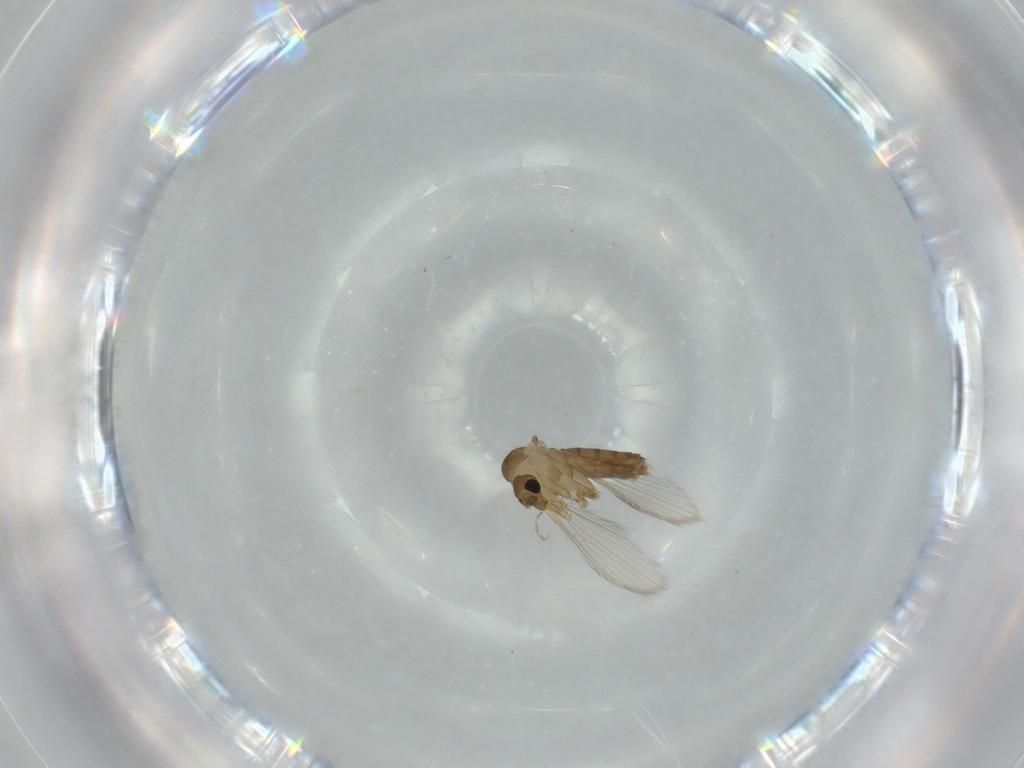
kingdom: Animalia
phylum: Arthropoda
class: Insecta
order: Diptera
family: Psychodidae
